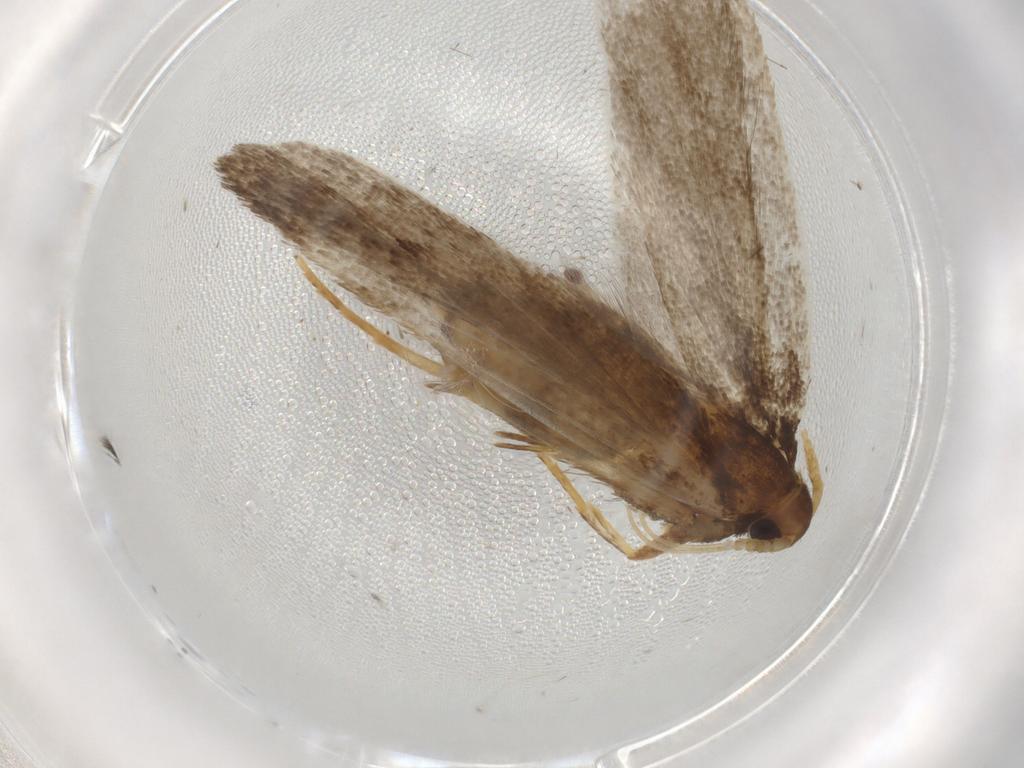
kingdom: Animalia
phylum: Arthropoda
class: Insecta
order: Lepidoptera
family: Lecithoceridae
